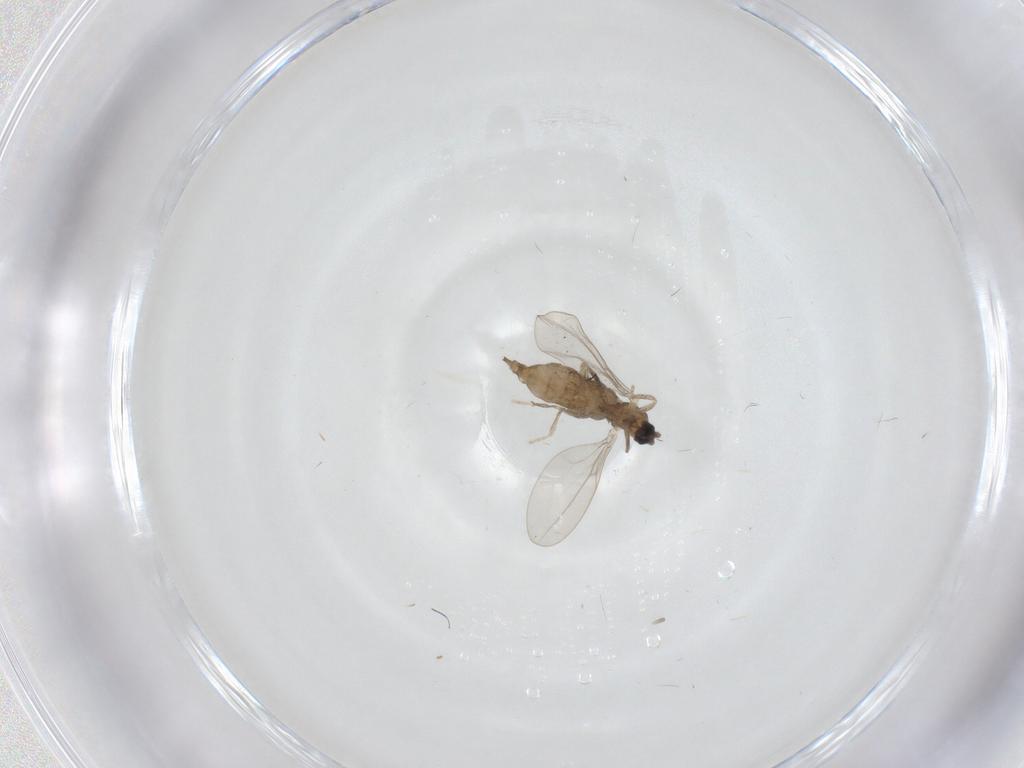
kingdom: Animalia
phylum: Arthropoda
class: Insecta
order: Diptera
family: Cecidomyiidae
